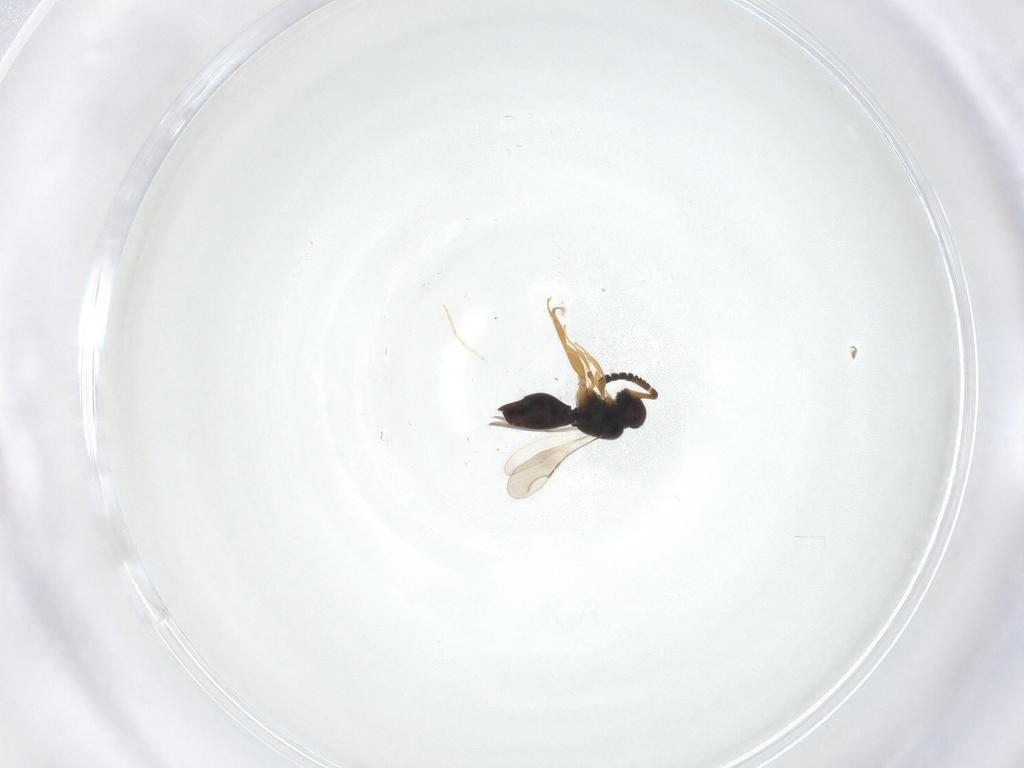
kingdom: Animalia
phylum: Arthropoda
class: Insecta
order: Hymenoptera
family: Ceraphronidae
